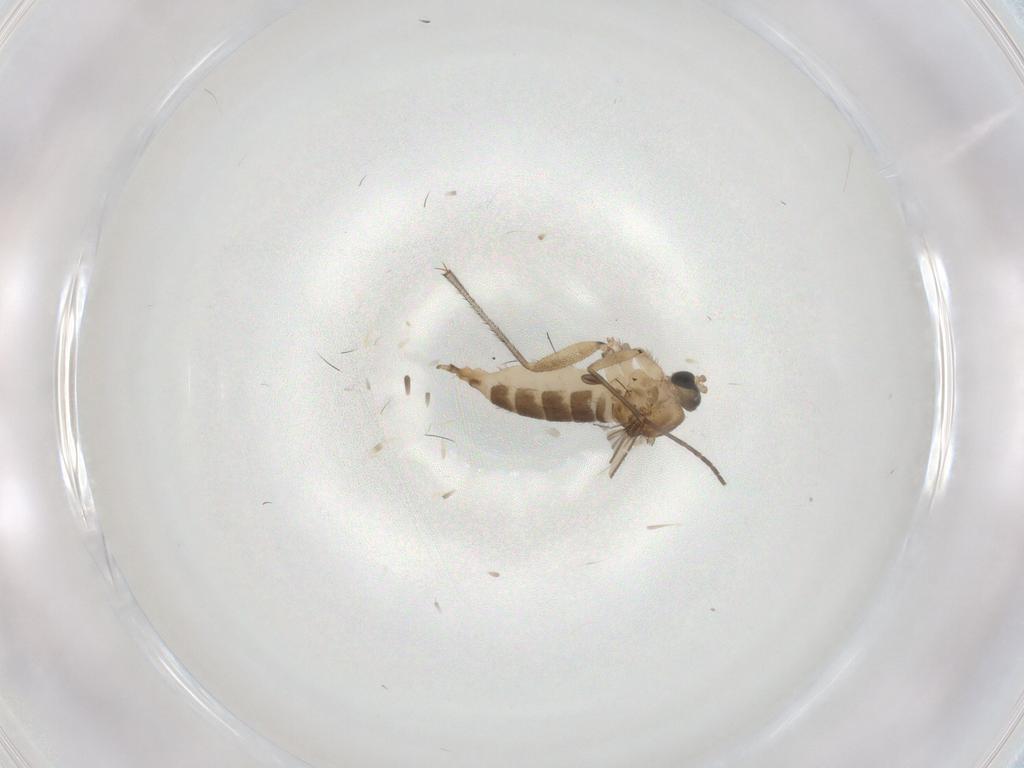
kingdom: Animalia
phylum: Arthropoda
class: Insecta
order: Diptera
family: Sciaridae
